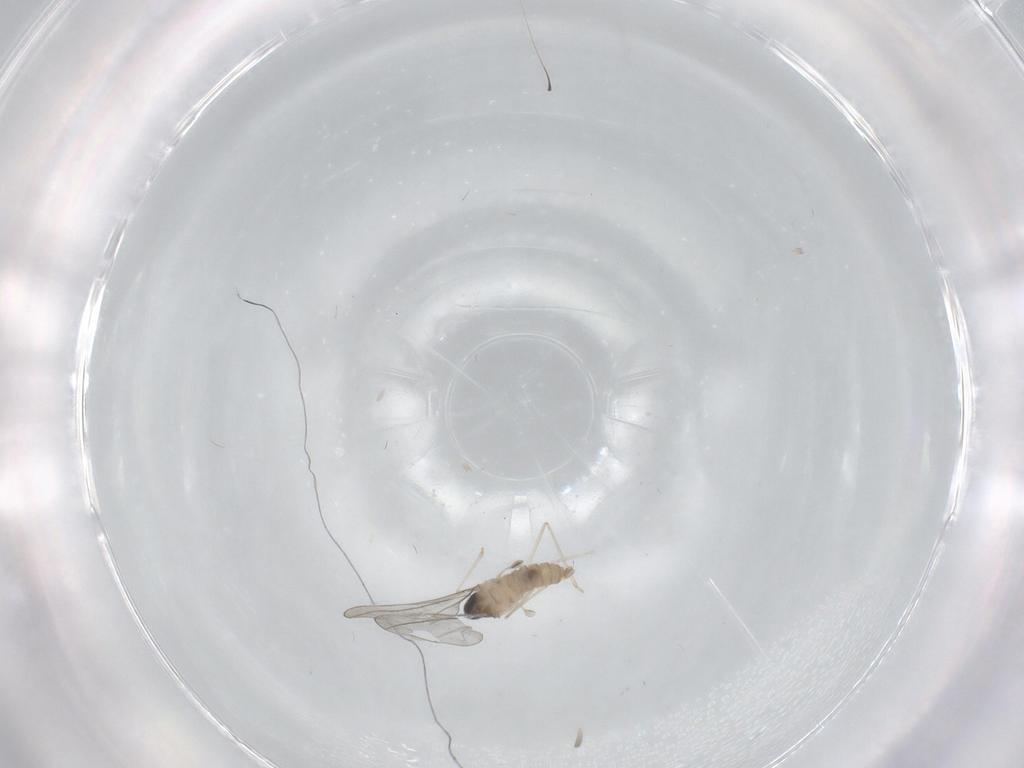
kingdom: Animalia
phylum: Arthropoda
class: Insecta
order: Diptera
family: Cecidomyiidae
